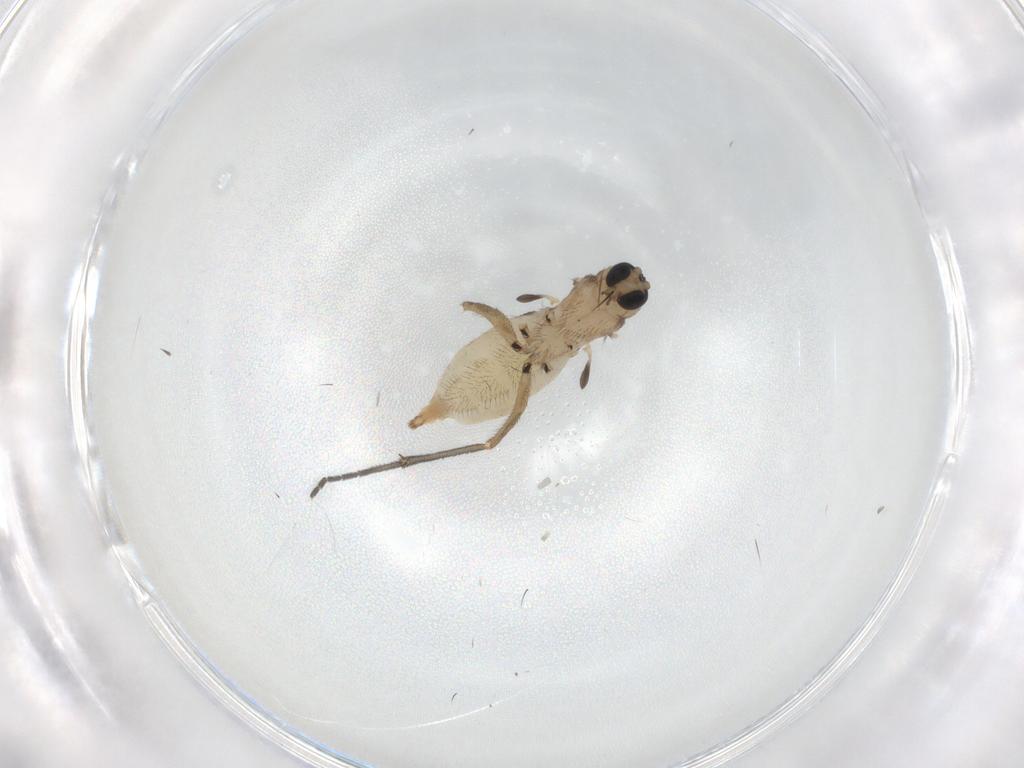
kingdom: Animalia
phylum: Arthropoda
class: Insecta
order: Diptera
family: Sciaridae
